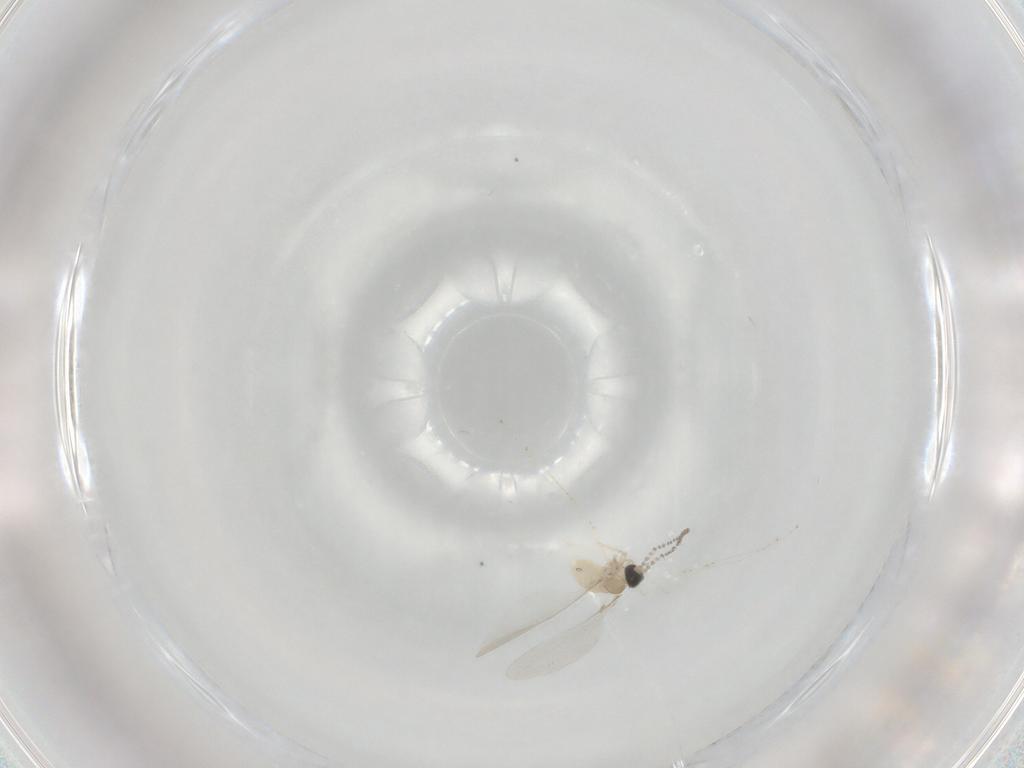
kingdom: Animalia
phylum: Arthropoda
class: Insecta
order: Diptera
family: Cecidomyiidae
